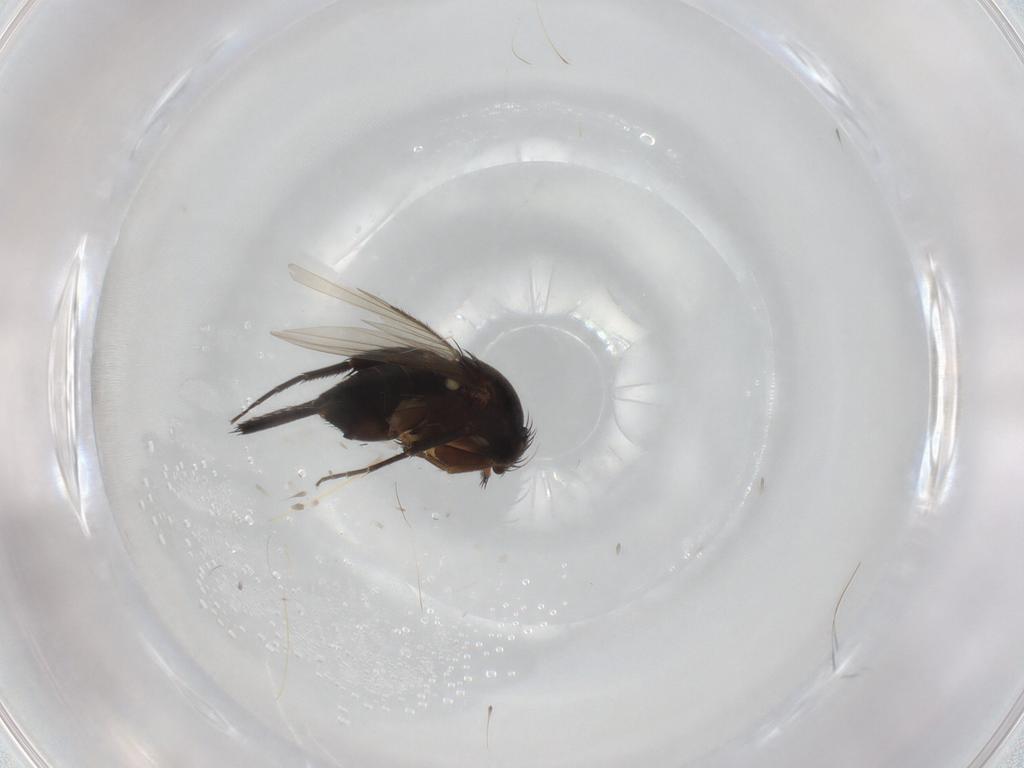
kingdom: Animalia
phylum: Arthropoda
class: Insecta
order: Diptera
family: Phoridae
